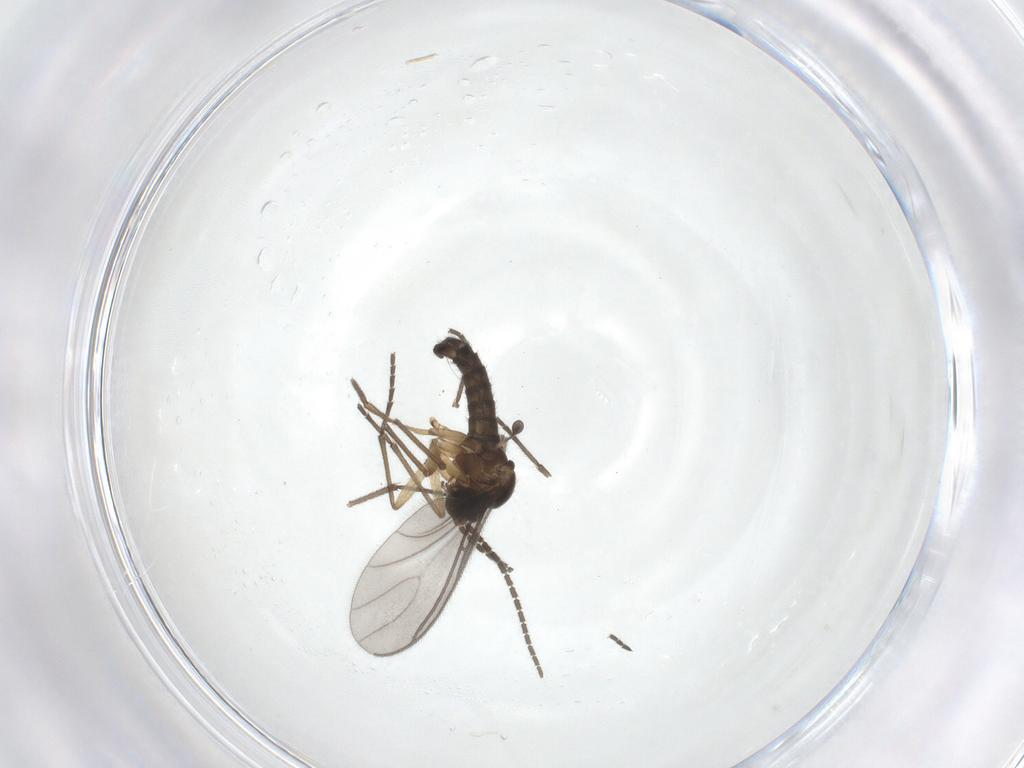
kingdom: Animalia
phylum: Arthropoda
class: Insecta
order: Diptera
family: Sciaridae
